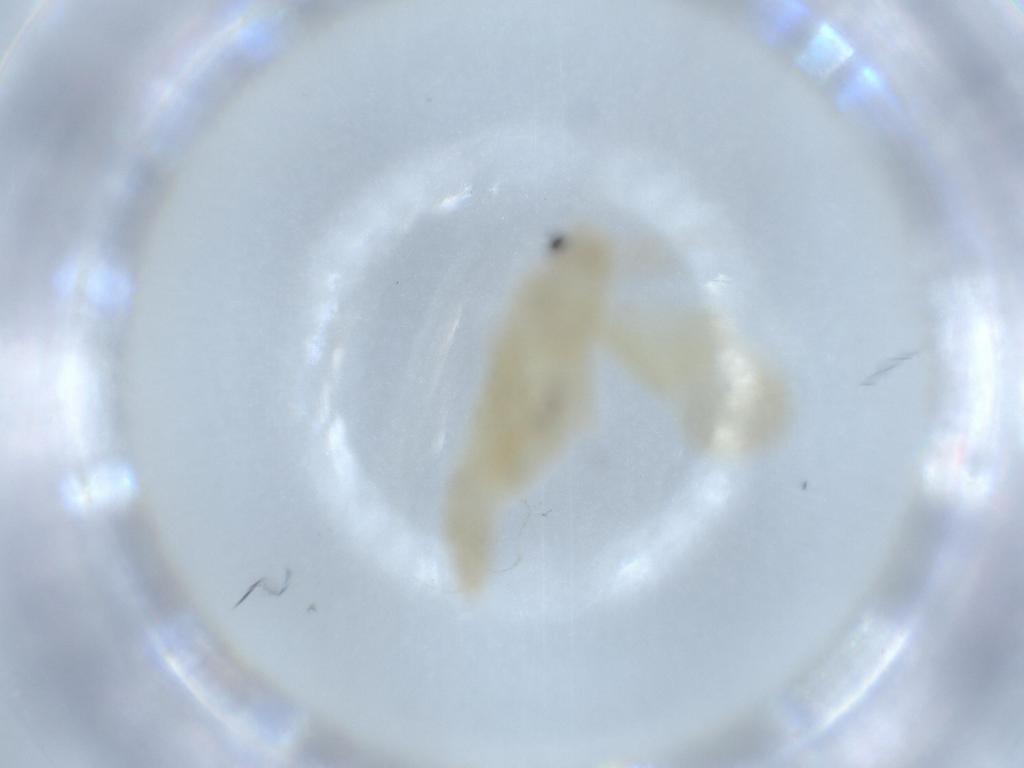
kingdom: Animalia
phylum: Arthropoda
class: Insecta
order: Psocodea
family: Caeciliusidae
